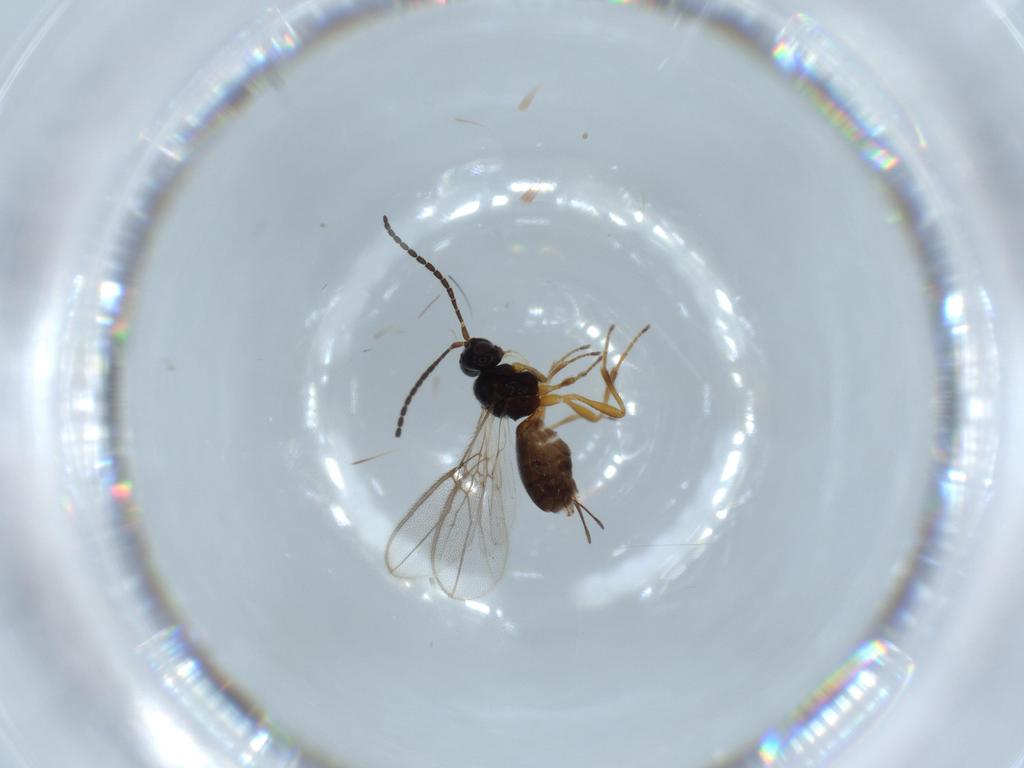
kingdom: Animalia
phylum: Arthropoda
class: Insecta
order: Hymenoptera
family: Braconidae
